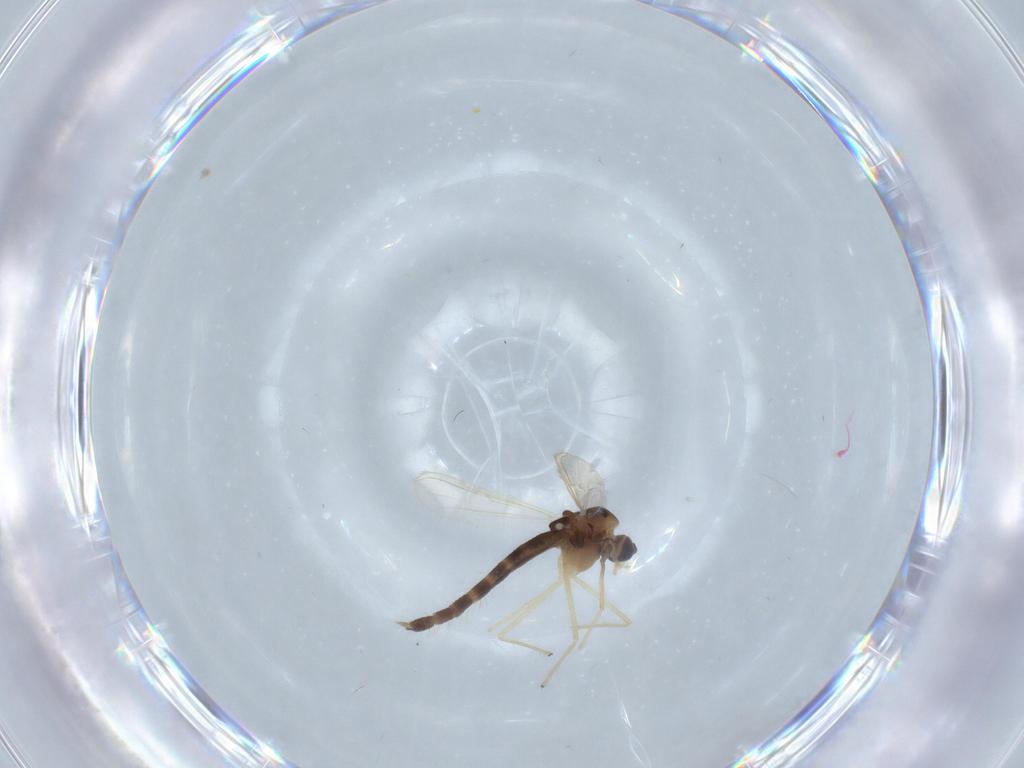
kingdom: Animalia
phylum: Arthropoda
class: Insecta
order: Diptera
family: Chironomidae
